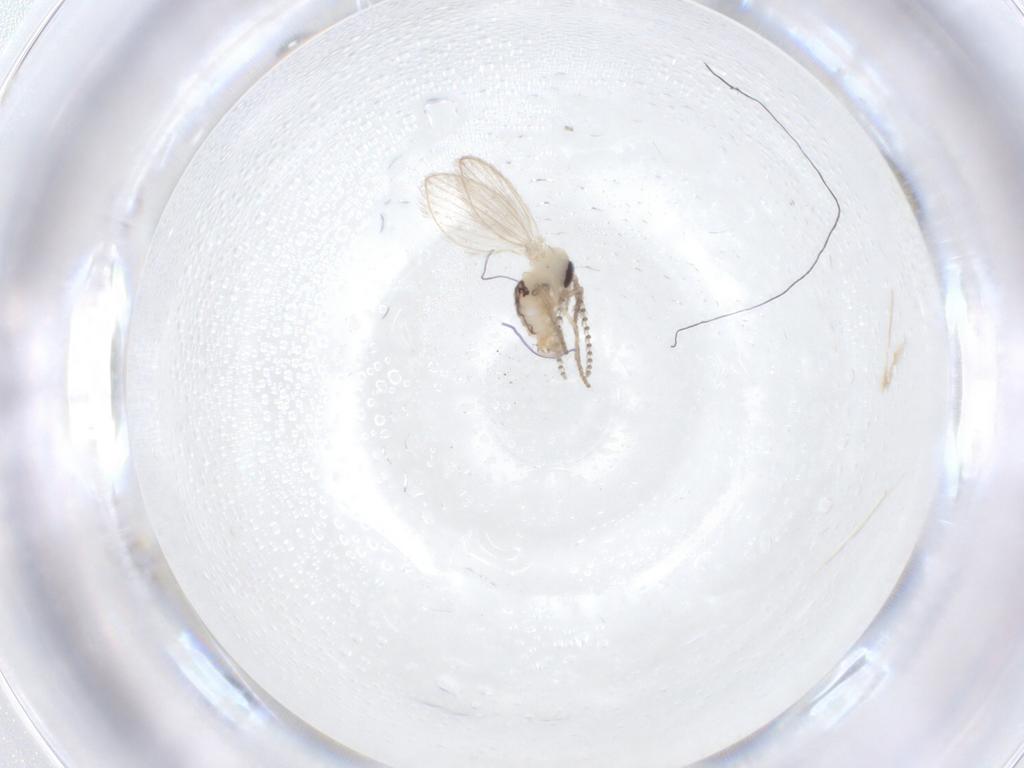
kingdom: Animalia
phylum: Arthropoda
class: Insecta
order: Diptera
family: Psychodidae
